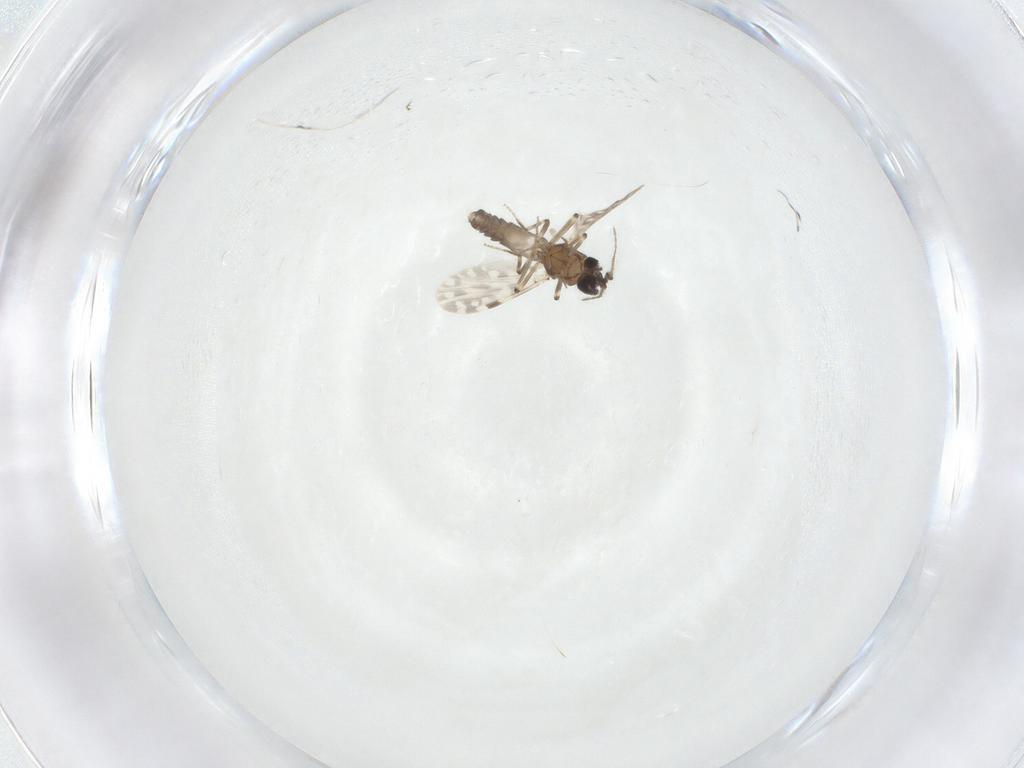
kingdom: Animalia
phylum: Arthropoda
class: Insecta
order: Diptera
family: Ceratopogonidae
